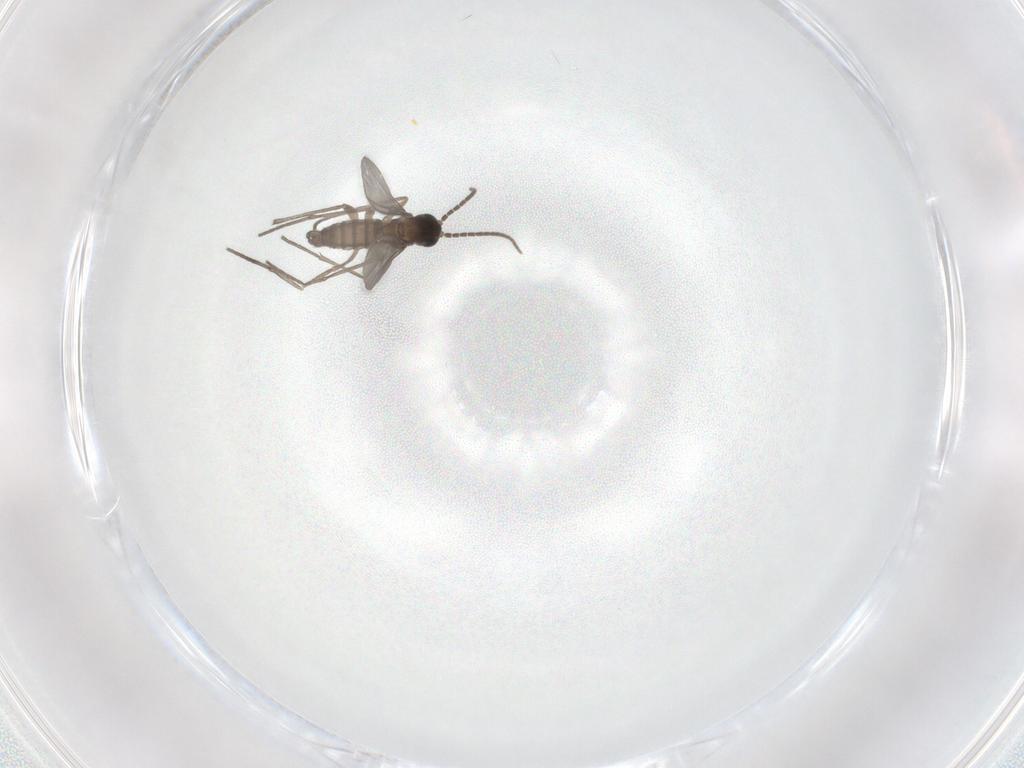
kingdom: Animalia
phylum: Arthropoda
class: Insecta
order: Diptera
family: Sciaridae
